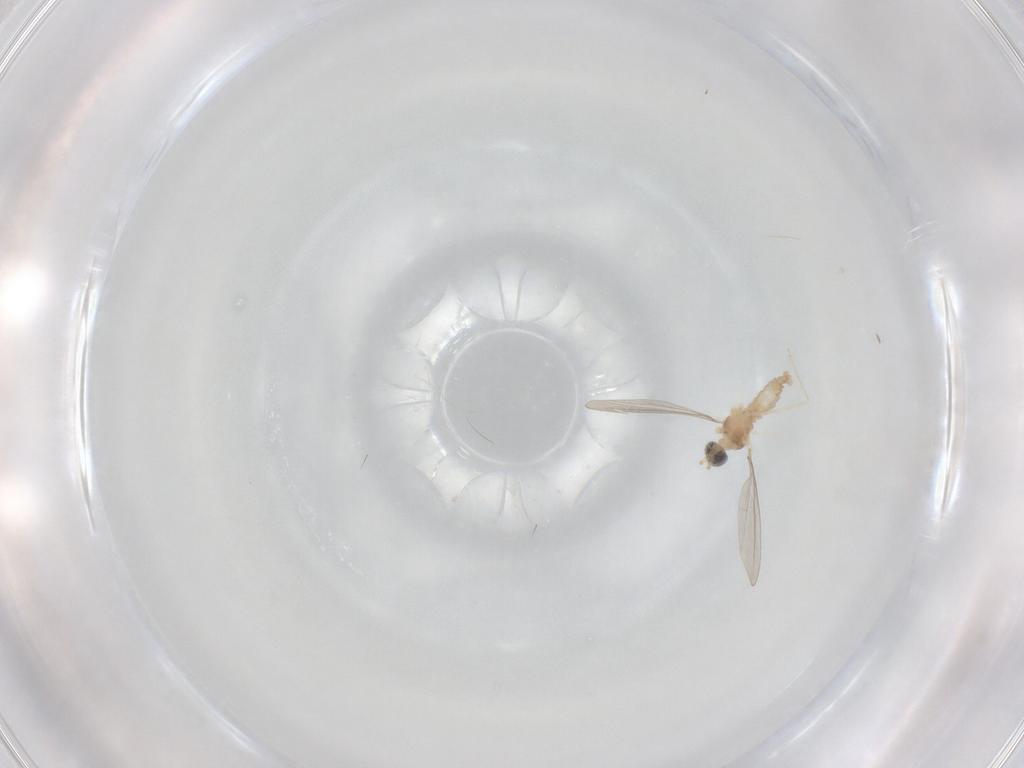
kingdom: Animalia
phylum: Arthropoda
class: Insecta
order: Diptera
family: Cecidomyiidae
